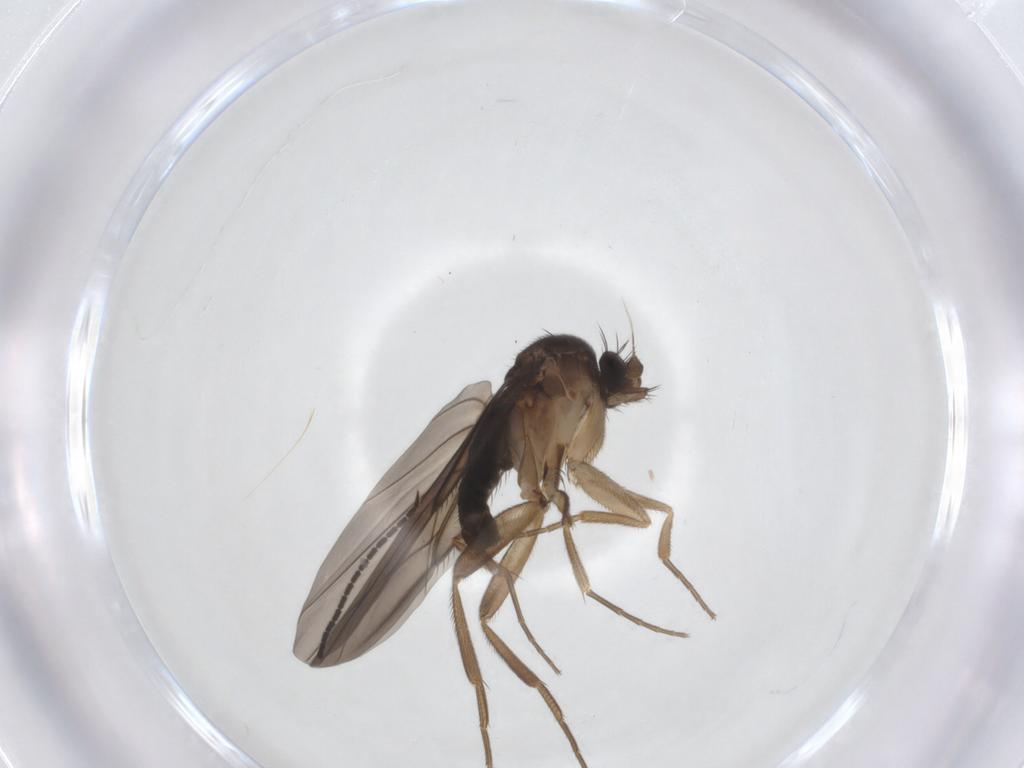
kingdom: Animalia
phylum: Arthropoda
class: Insecta
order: Diptera
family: Phoridae
